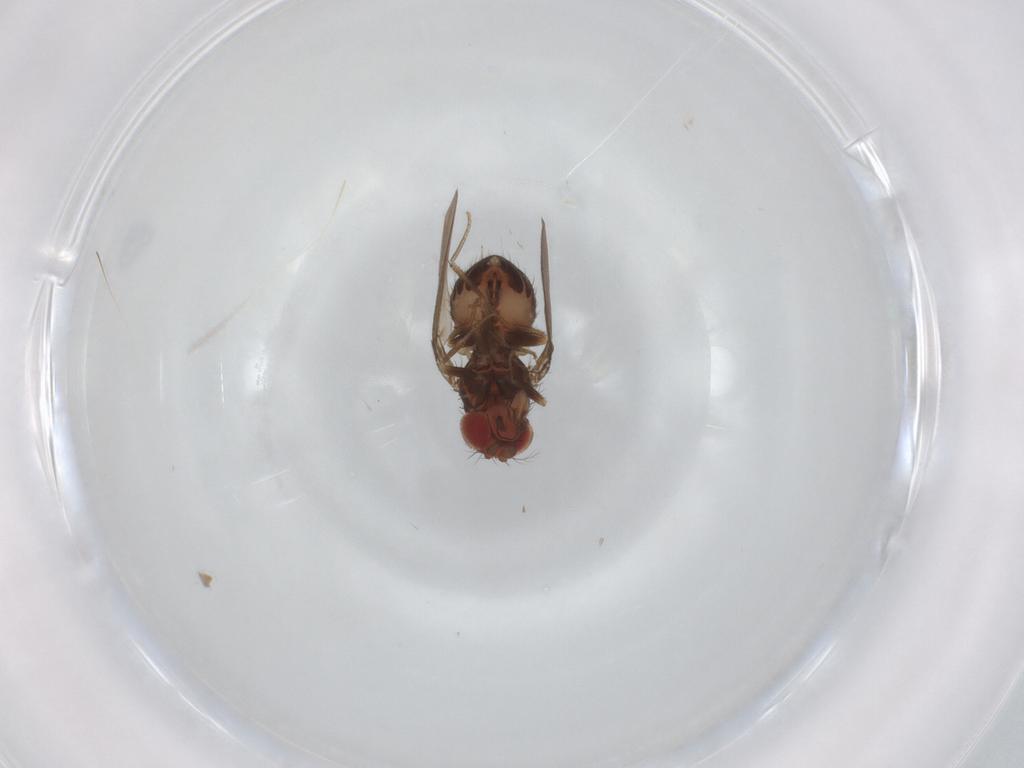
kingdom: Animalia
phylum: Arthropoda
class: Insecta
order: Diptera
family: Drosophilidae
